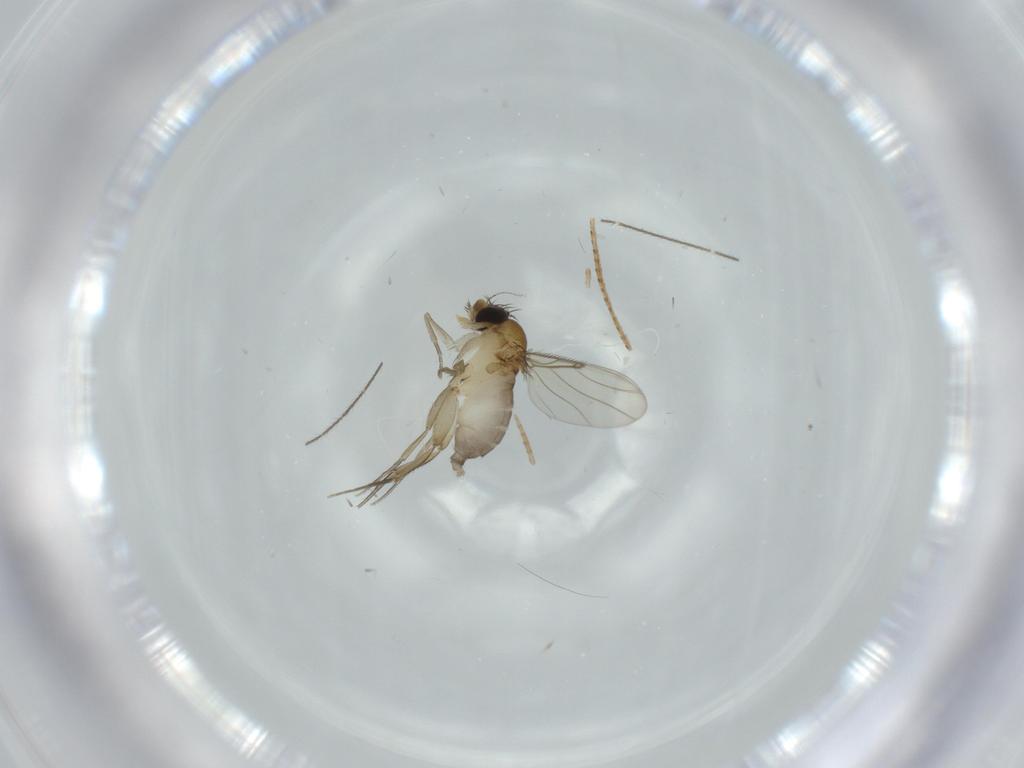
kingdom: Animalia
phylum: Arthropoda
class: Insecta
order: Diptera
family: Phoridae
